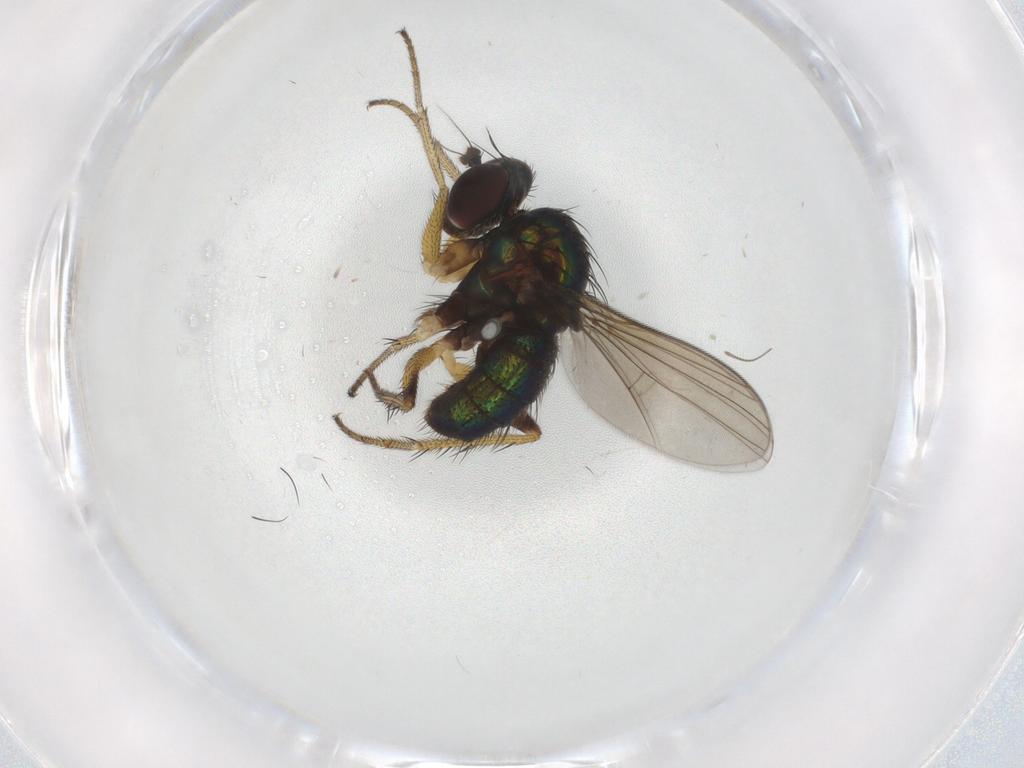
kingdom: Animalia
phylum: Arthropoda
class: Insecta
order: Diptera
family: Dolichopodidae
